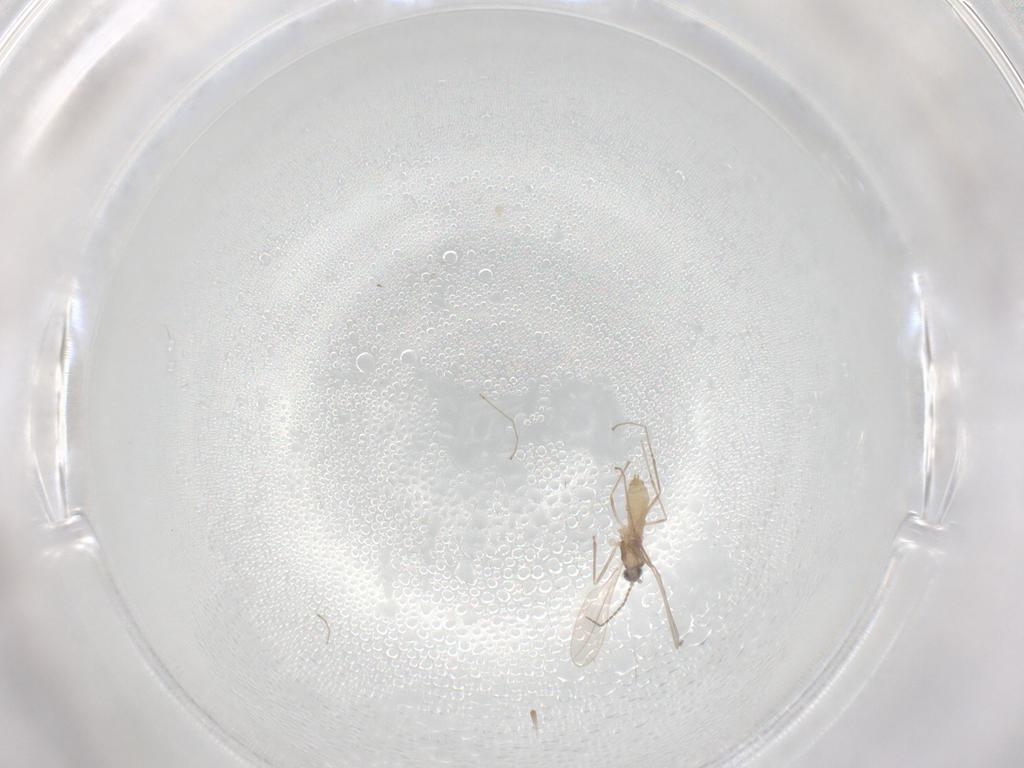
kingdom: Animalia
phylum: Arthropoda
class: Insecta
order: Diptera
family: Cecidomyiidae
